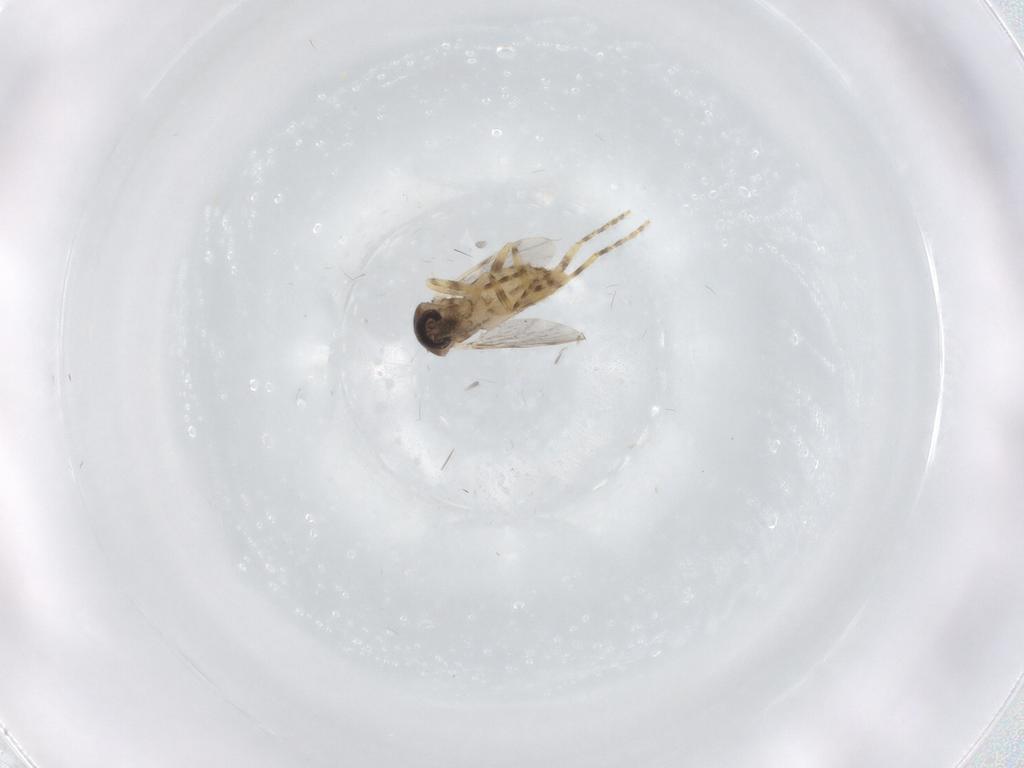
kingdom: Animalia
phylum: Arthropoda
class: Insecta
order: Diptera
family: Ceratopogonidae
